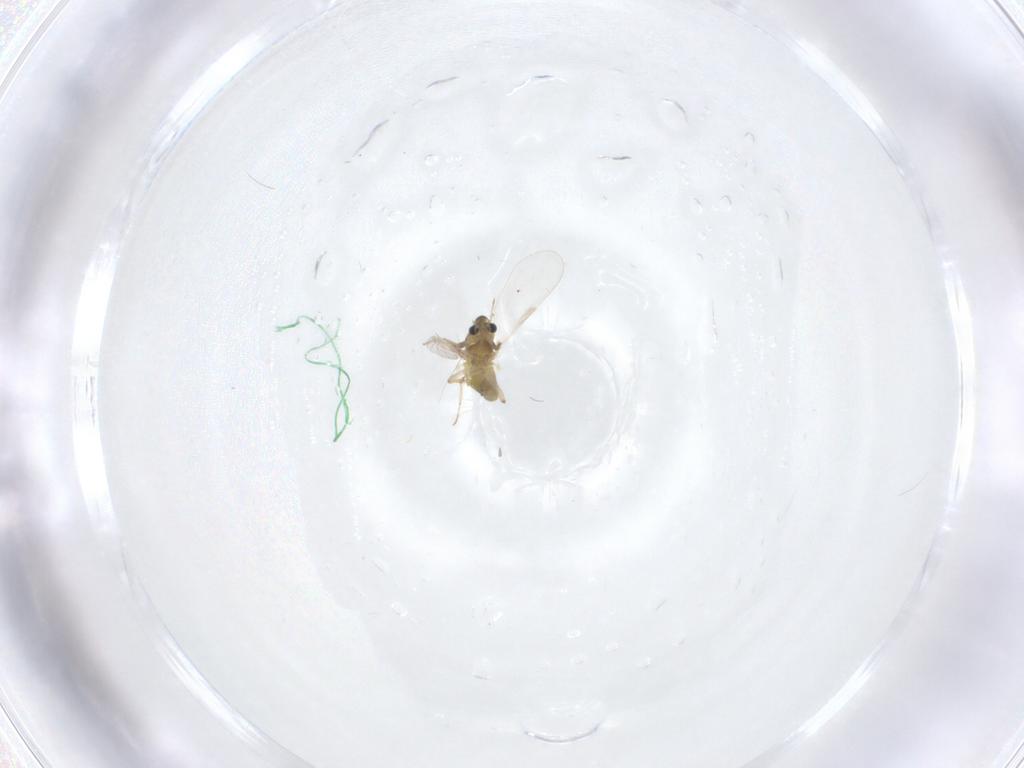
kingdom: Animalia
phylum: Arthropoda
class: Insecta
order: Diptera
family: Chironomidae
